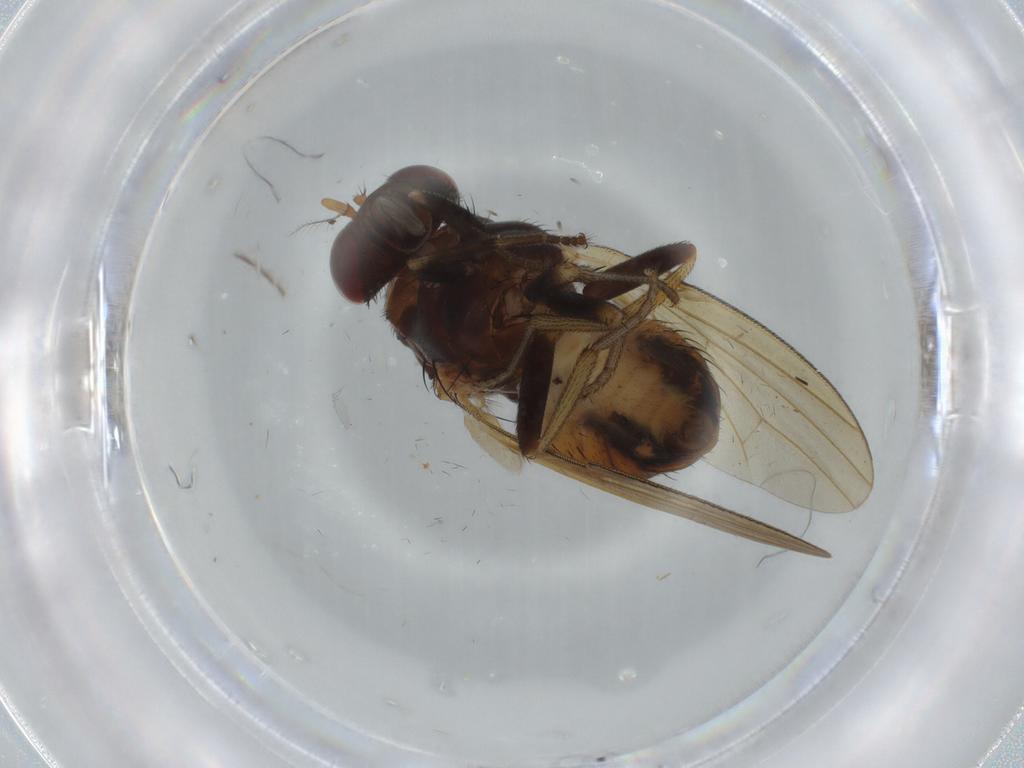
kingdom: Animalia
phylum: Arthropoda
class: Insecta
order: Diptera
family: Lauxaniidae
